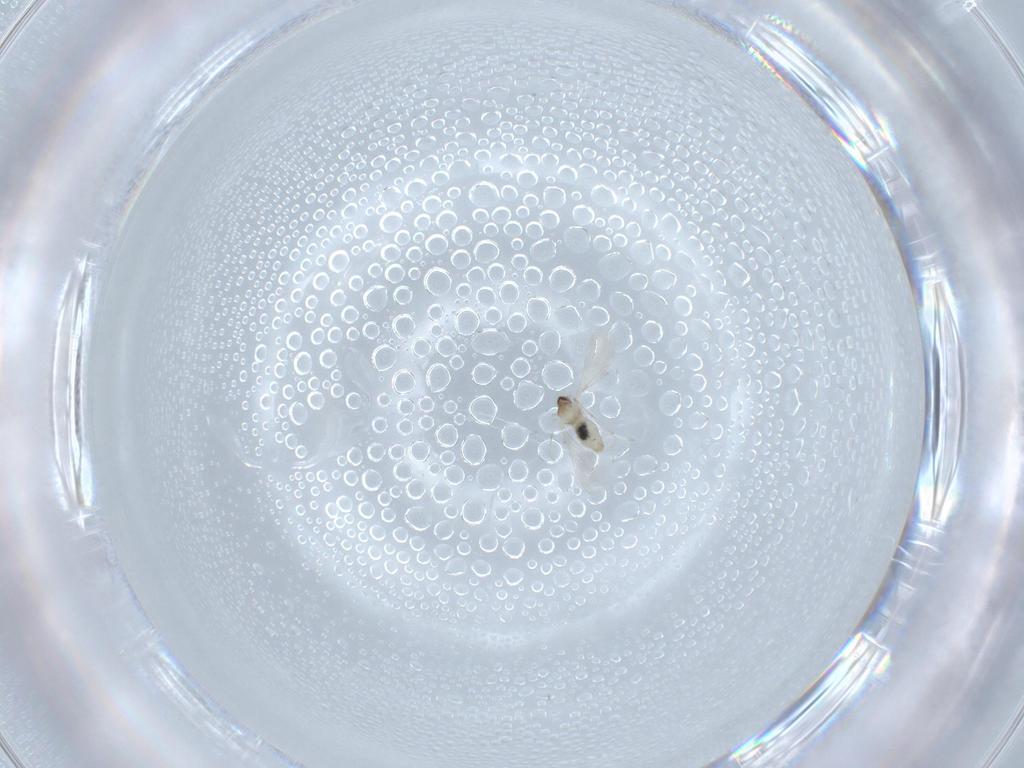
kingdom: Animalia
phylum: Arthropoda
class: Insecta
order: Diptera
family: Cecidomyiidae
